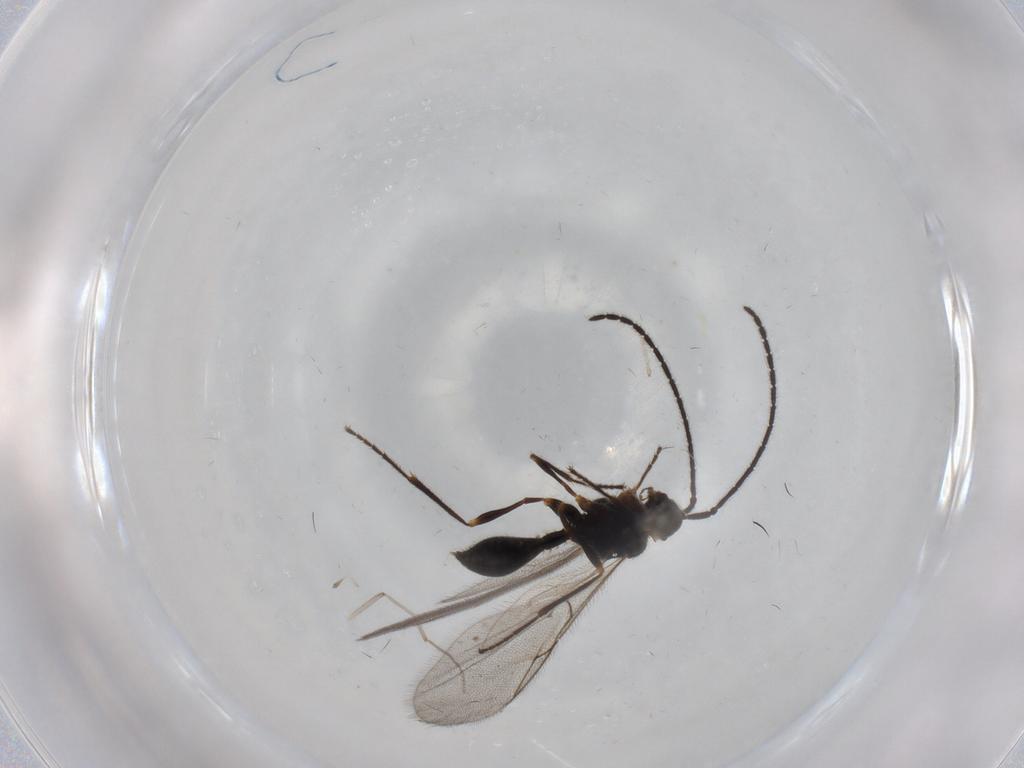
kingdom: Animalia
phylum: Arthropoda
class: Insecta
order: Hymenoptera
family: Diapriidae
